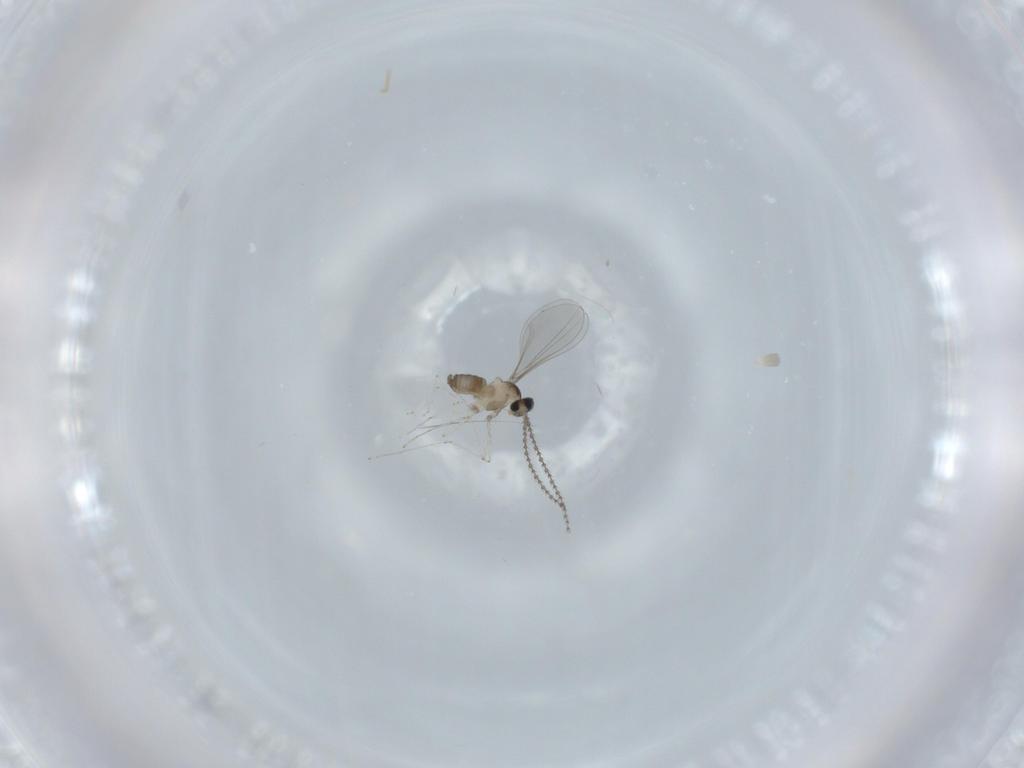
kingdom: Animalia
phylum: Arthropoda
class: Insecta
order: Diptera
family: Cecidomyiidae
